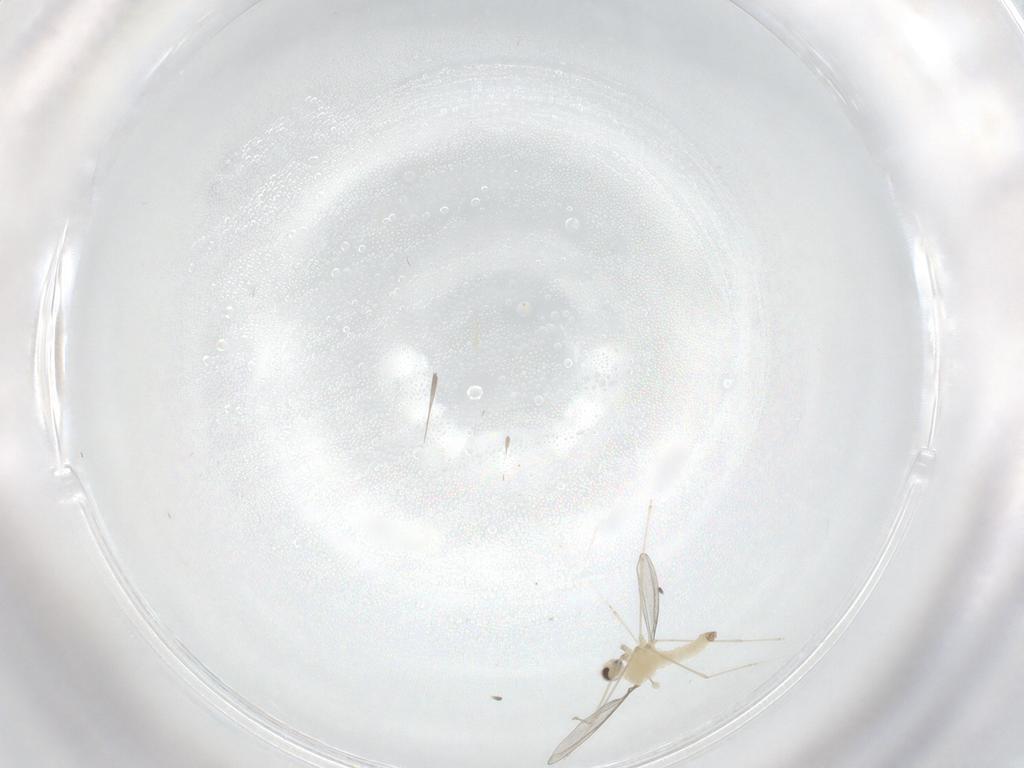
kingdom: Animalia
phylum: Arthropoda
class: Insecta
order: Diptera
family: Cecidomyiidae
